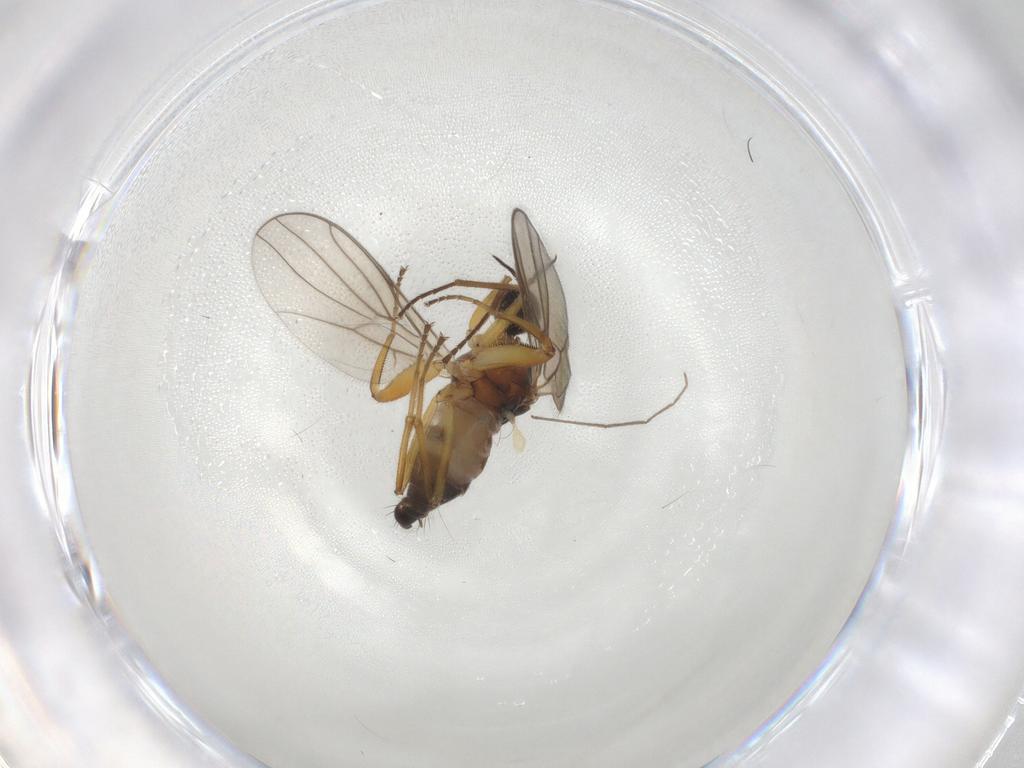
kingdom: Animalia
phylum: Arthropoda
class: Insecta
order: Diptera
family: Hybotidae
